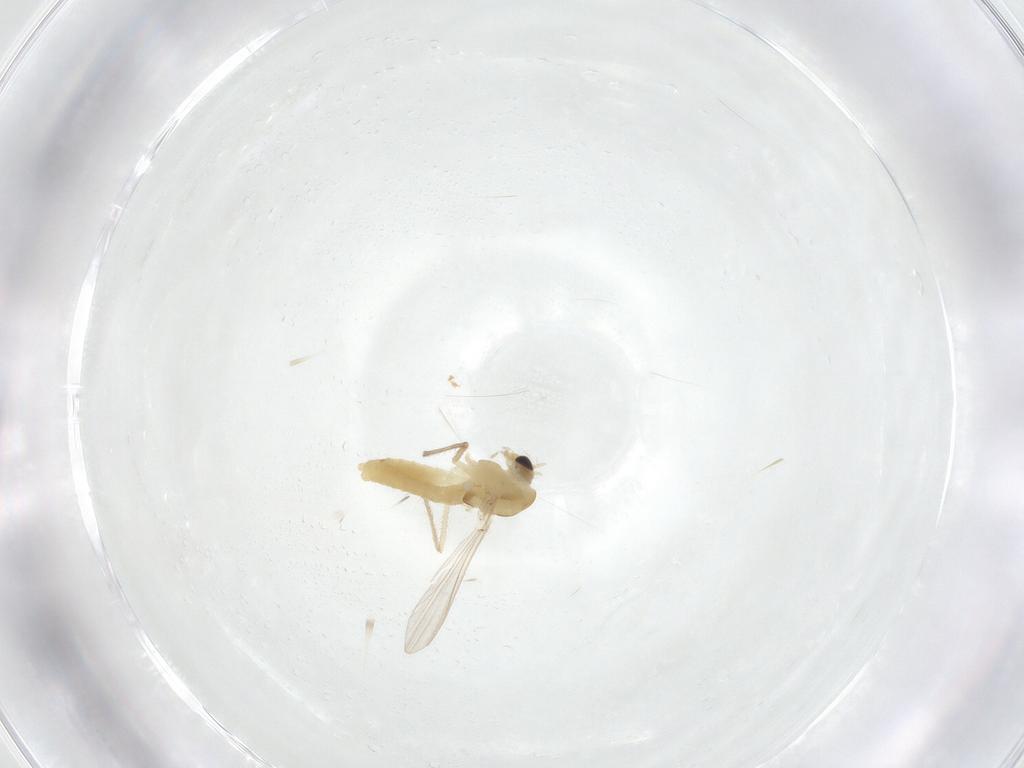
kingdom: Animalia
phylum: Arthropoda
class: Insecta
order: Diptera
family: Chironomidae
